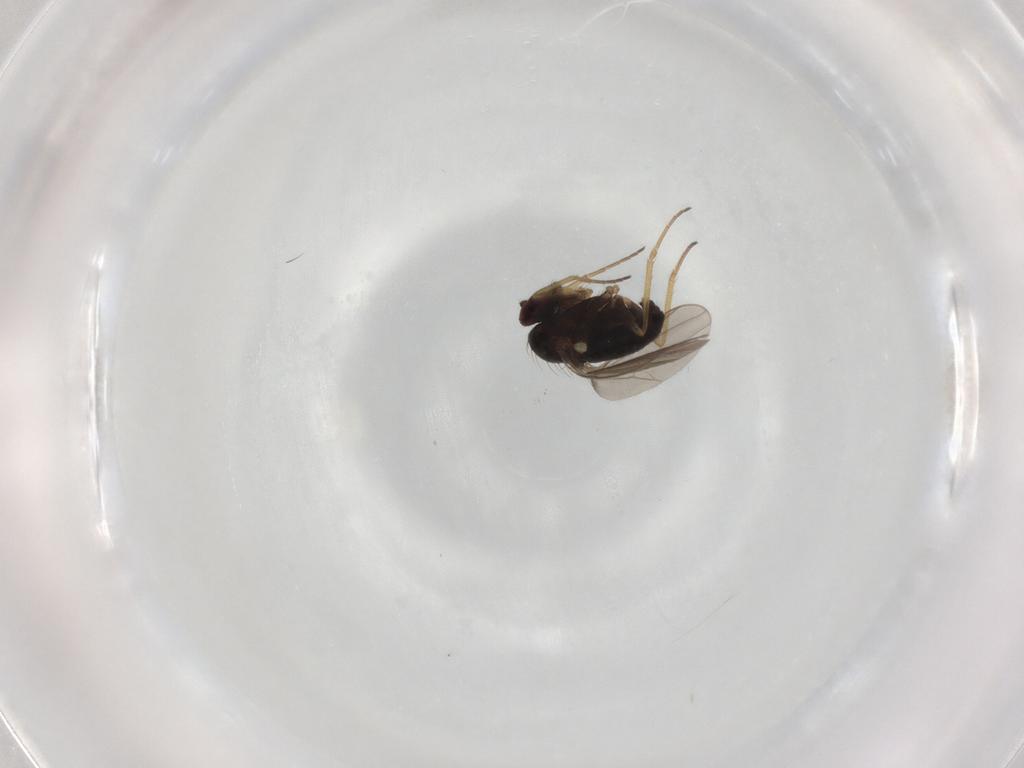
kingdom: Animalia
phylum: Arthropoda
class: Insecta
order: Diptera
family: Dolichopodidae
